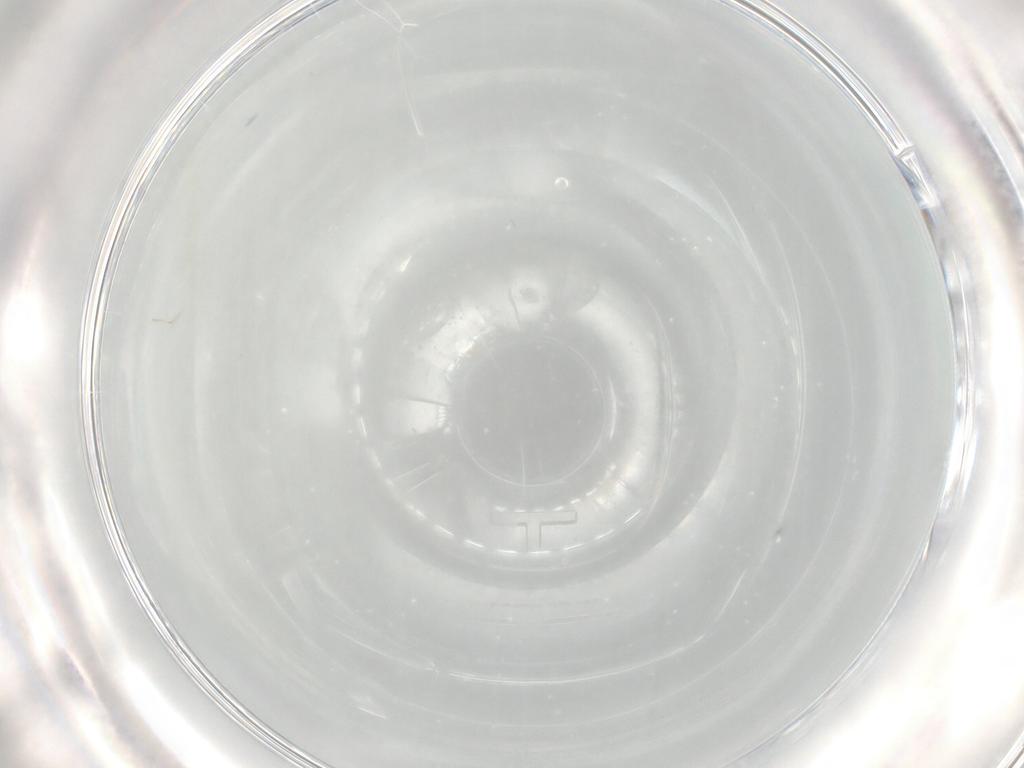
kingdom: Animalia
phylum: Arthropoda
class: Insecta
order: Diptera
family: Cecidomyiidae
